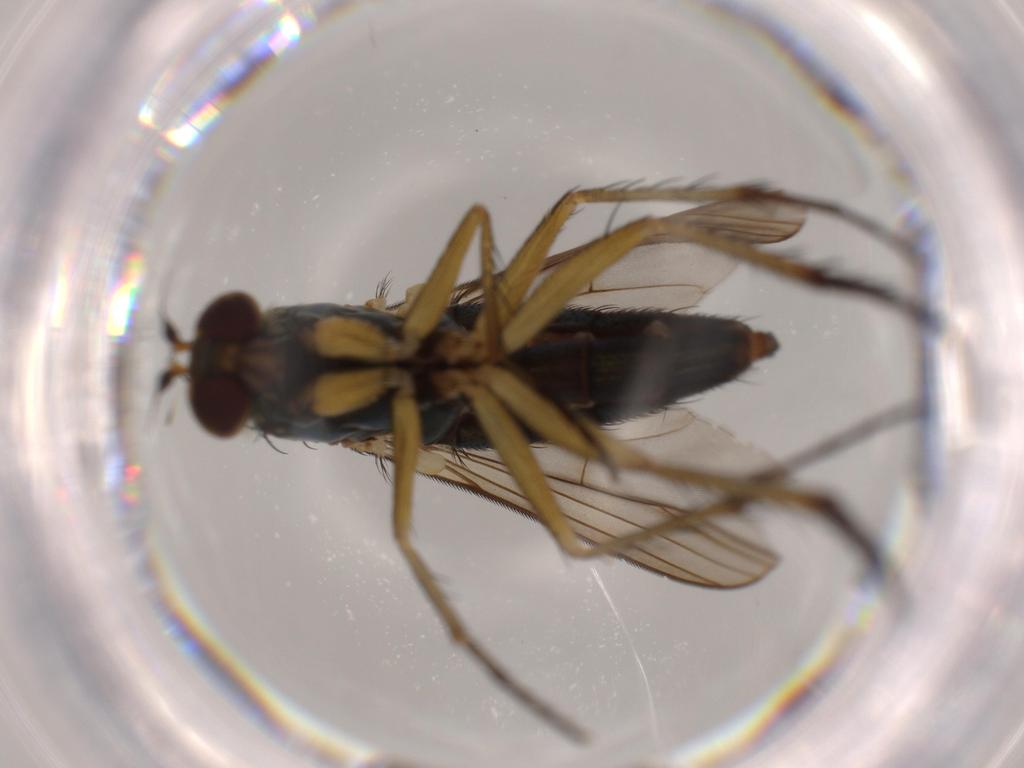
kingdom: Animalia
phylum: Arthropoda
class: Insecta
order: Diptera
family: Dolichopodidae
